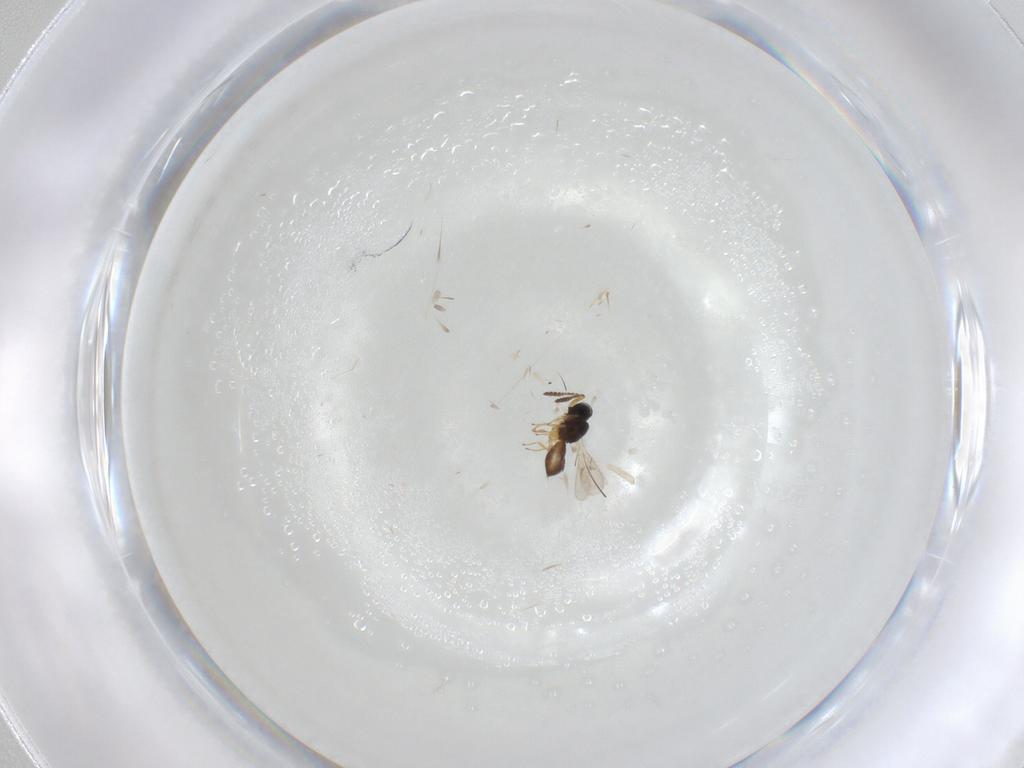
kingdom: Animalia
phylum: Arthropoda
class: Insecta
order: Hymenoptera
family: Scelionidae
